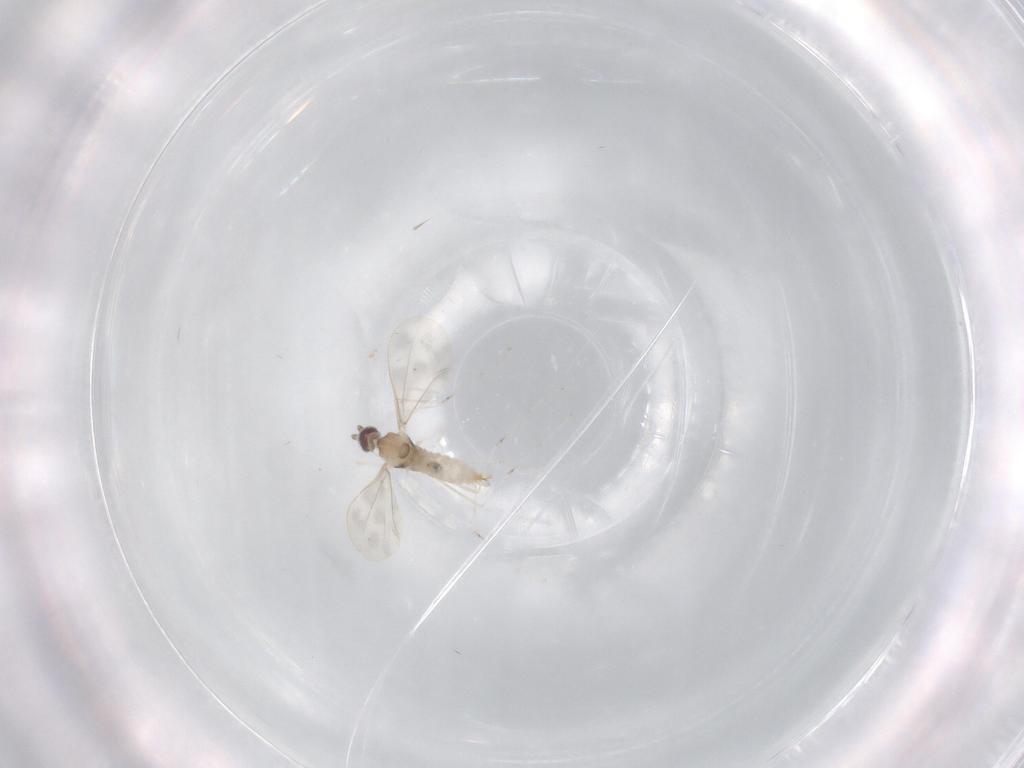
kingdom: Animalia
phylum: Arthropoda
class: Insecta
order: Diptera
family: Cecidomyiidae
